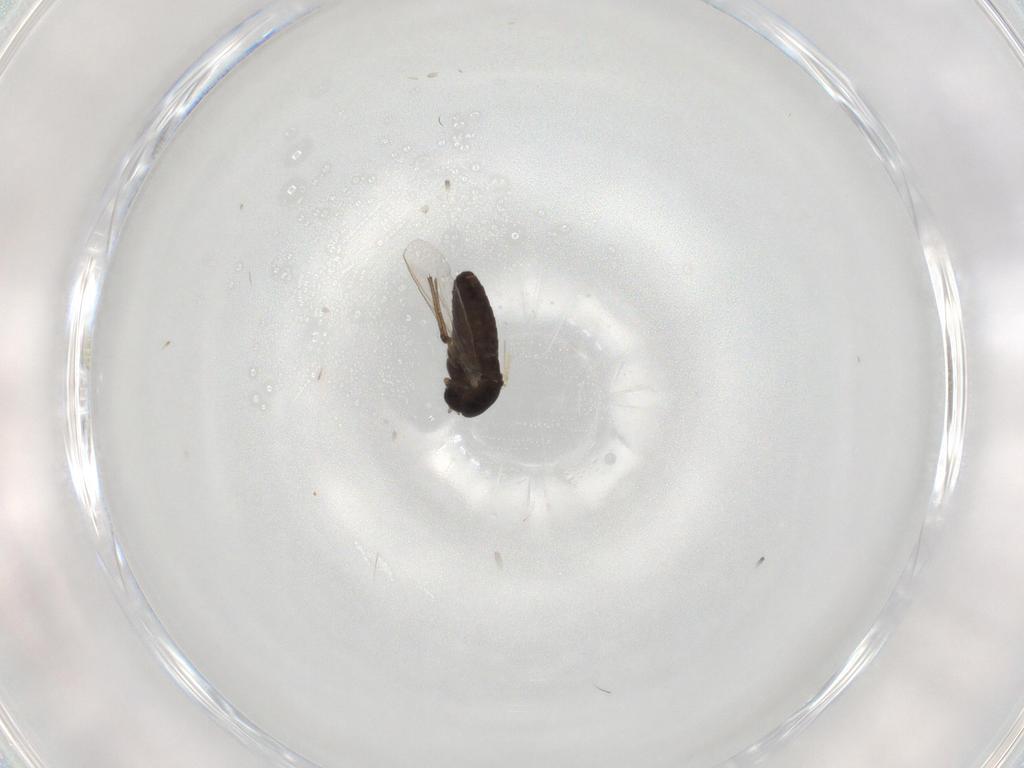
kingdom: Animalia
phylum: Arthropoda
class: Insecta
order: Diptera
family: Chironomidae
